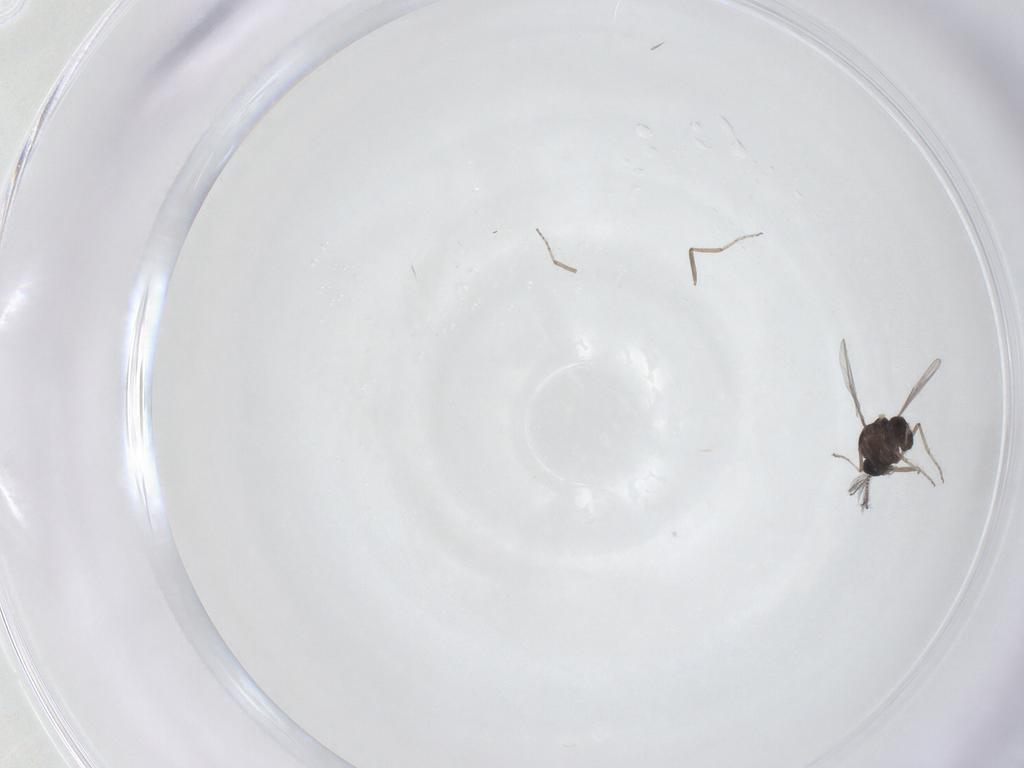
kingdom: Animalia
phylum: Arthropoda
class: Insecta
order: Diptera
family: Ceratopogonidae
